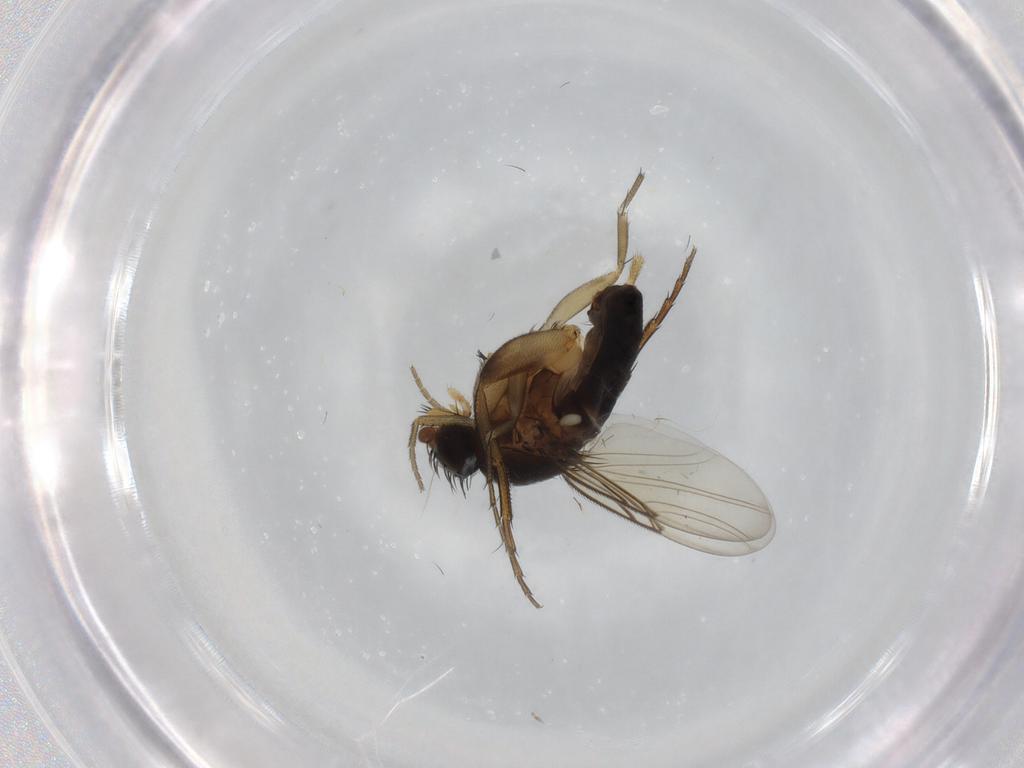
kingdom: Animalia
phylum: Arthropoda
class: Insecta
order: Diptera
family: Phoridae
